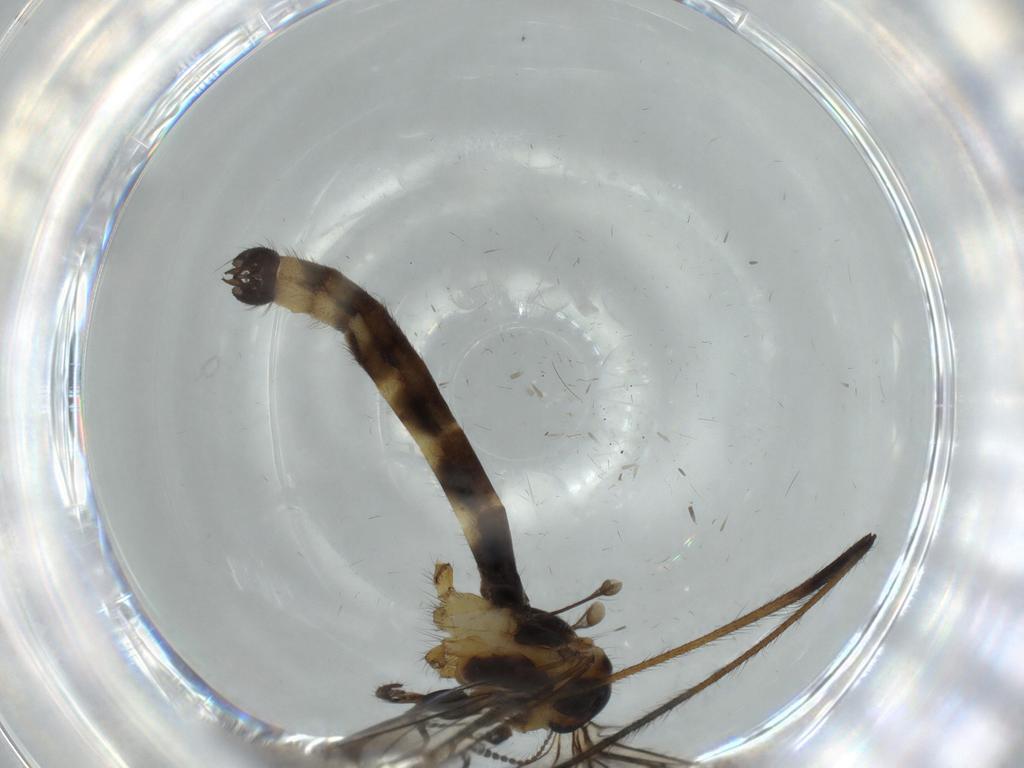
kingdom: Animalia
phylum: Arthropoda
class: Insecta
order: Diptera
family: Limoniidae
